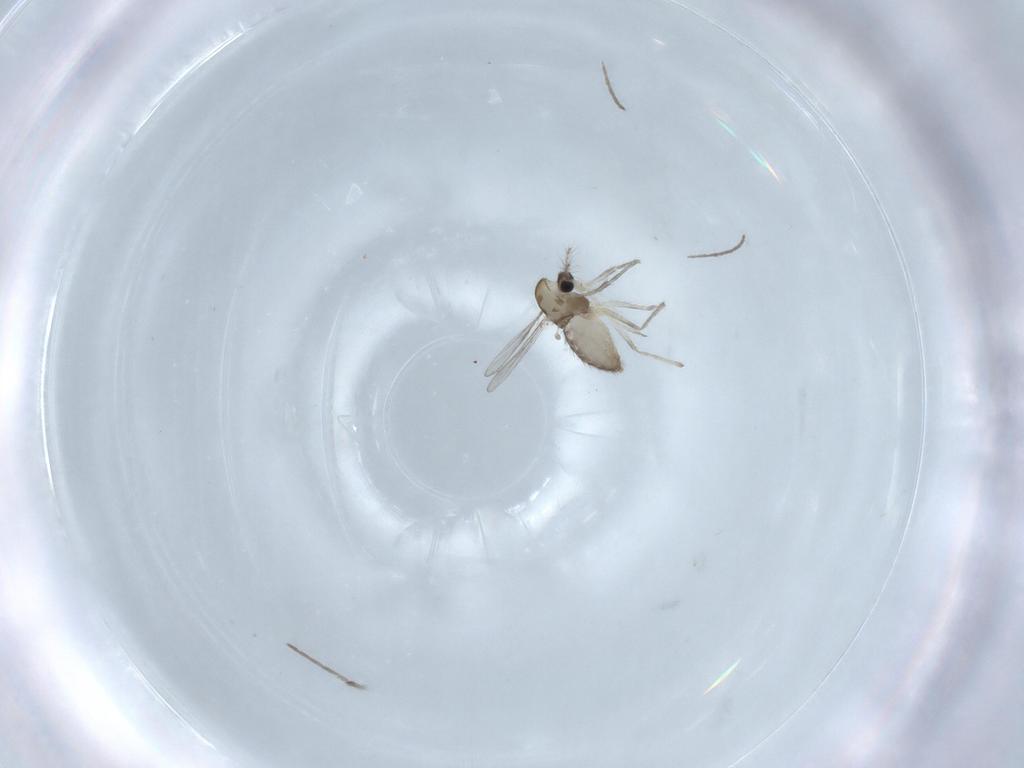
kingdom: Animalia
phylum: Arthropoda
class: Insecta
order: Diptera
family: Chironomidae
